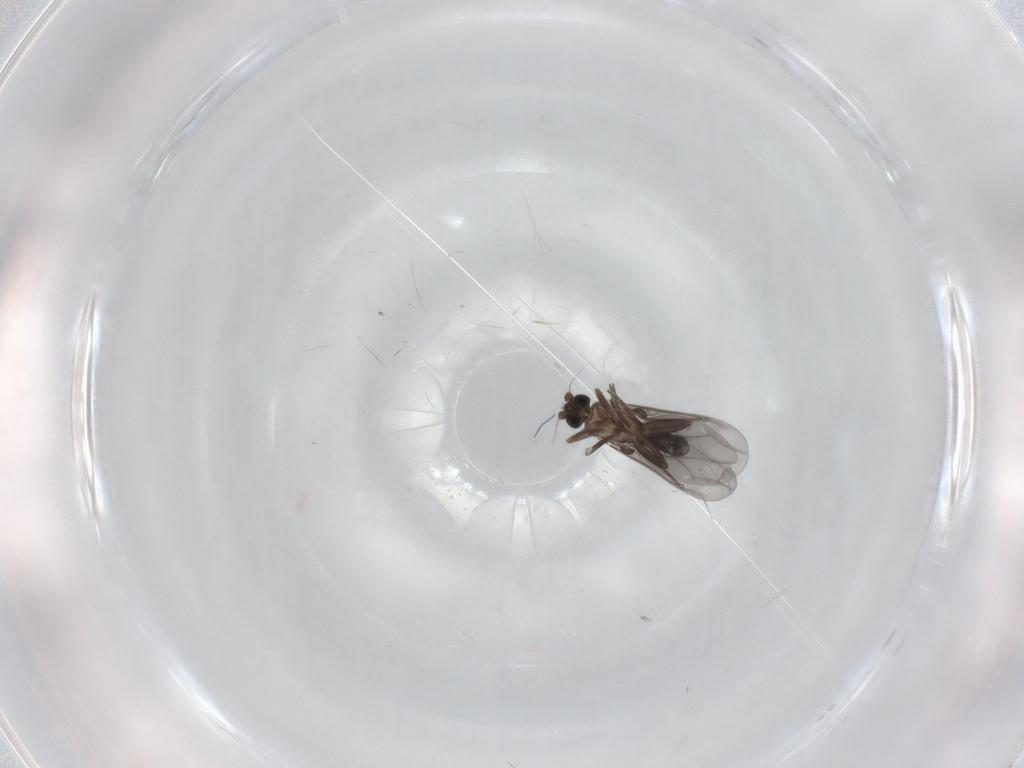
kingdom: Animalia
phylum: Arthropoda
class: Insecta
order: Diptera
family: Phoridae
